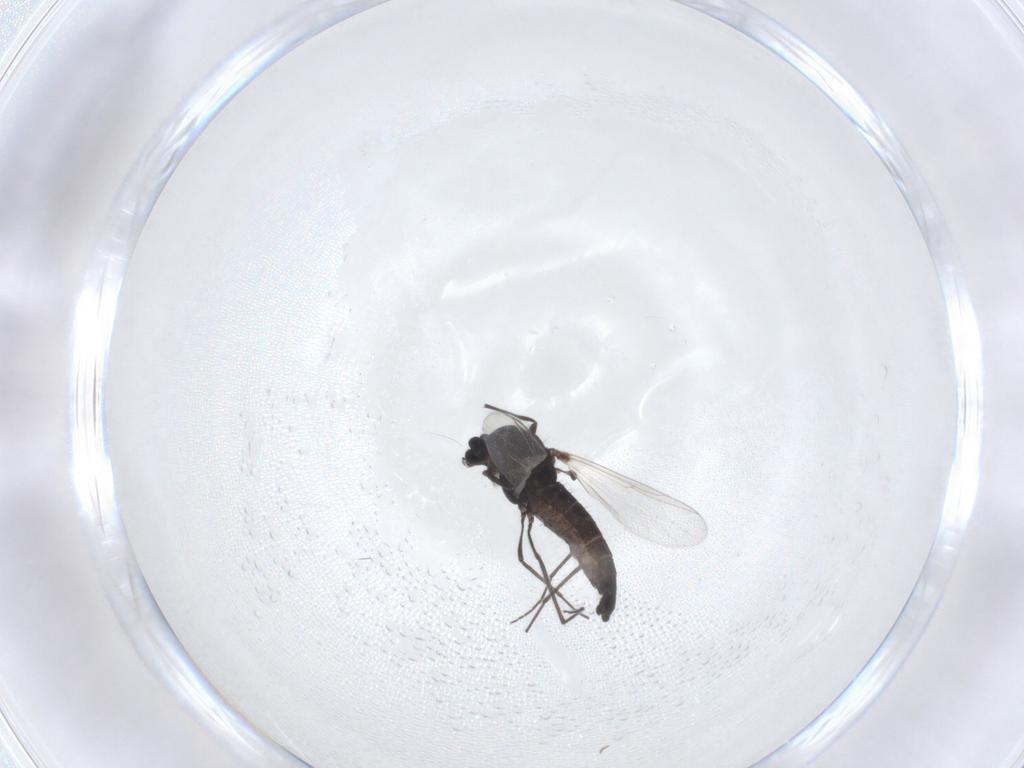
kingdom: Animalia
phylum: Arthropoda
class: Insecta
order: Diptera
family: Chironomidae
